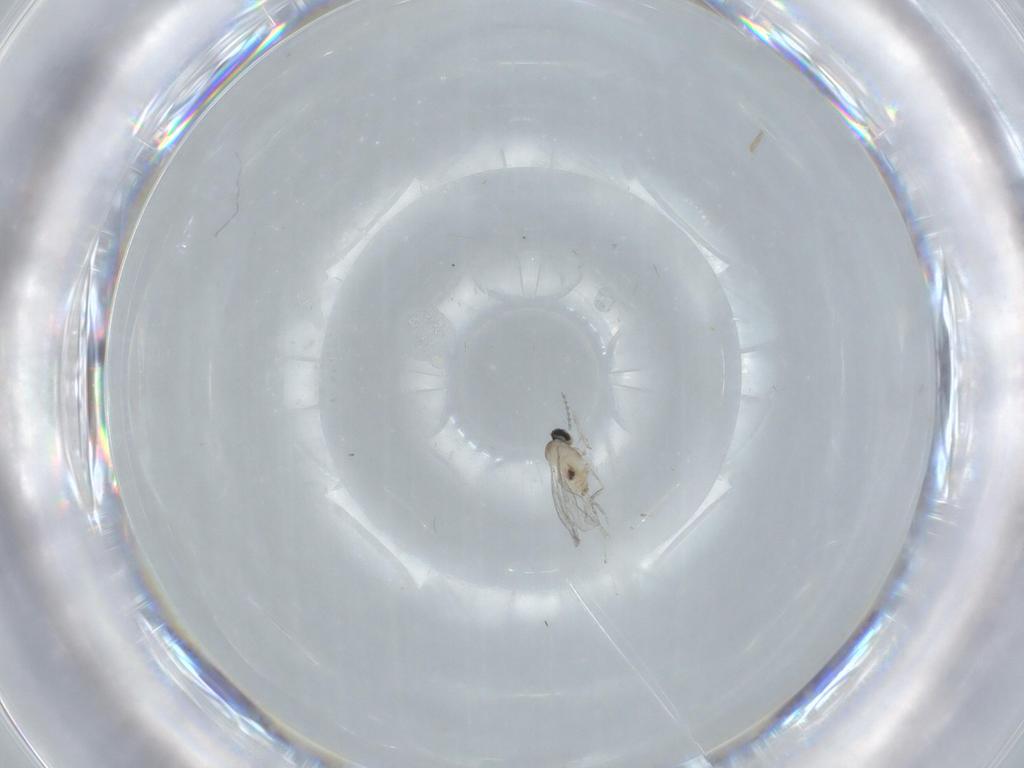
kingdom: Animalia
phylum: Arthropoda
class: Insecta
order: Diptera
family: Cecidomyiidae
